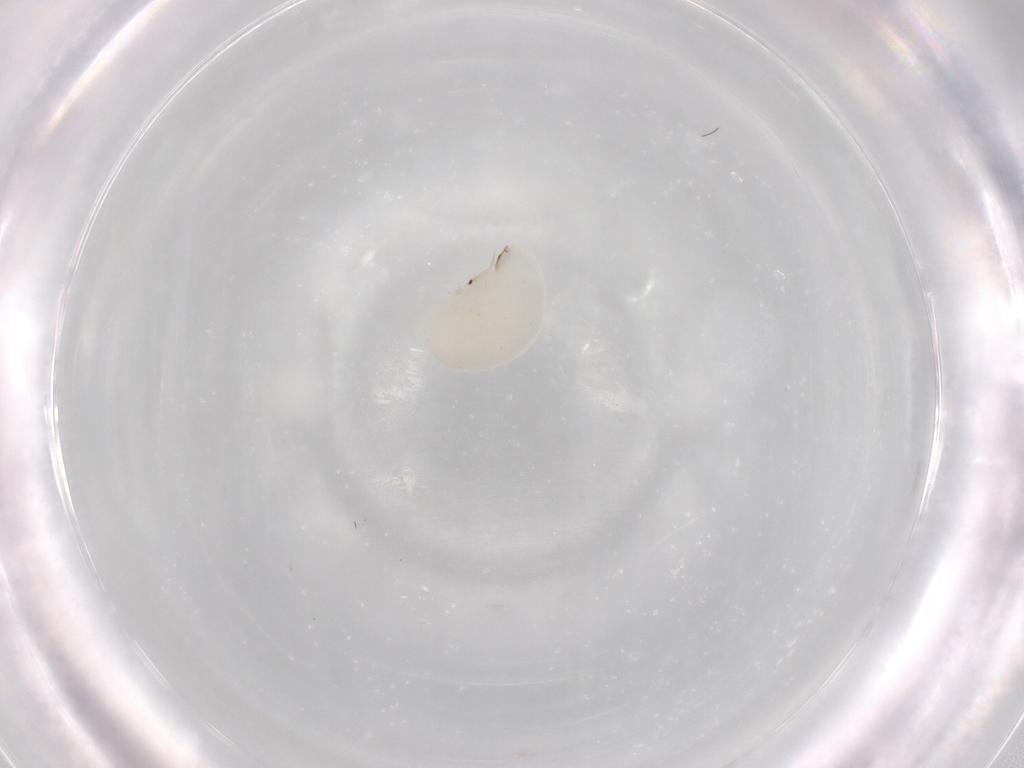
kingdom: Animalia
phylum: Arthropoda
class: Insecta
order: Hymenoptera
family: Eulophidae
